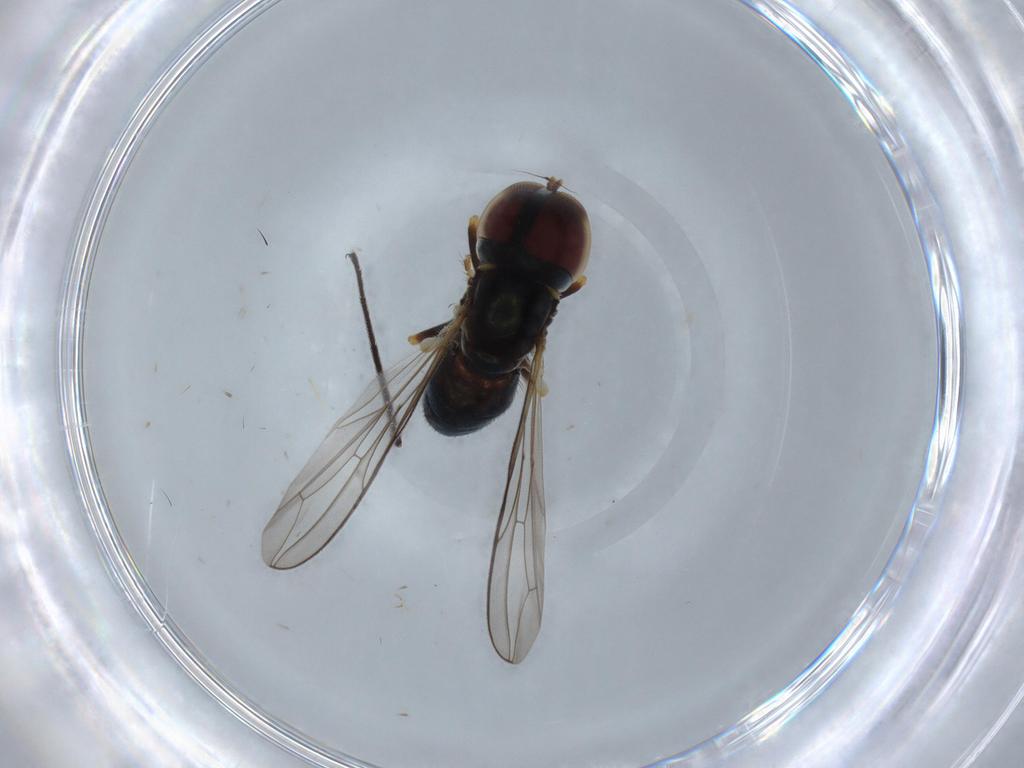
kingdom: Animalia
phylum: Arthropoda
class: Insecta
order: Diptera
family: Pipunculidae
